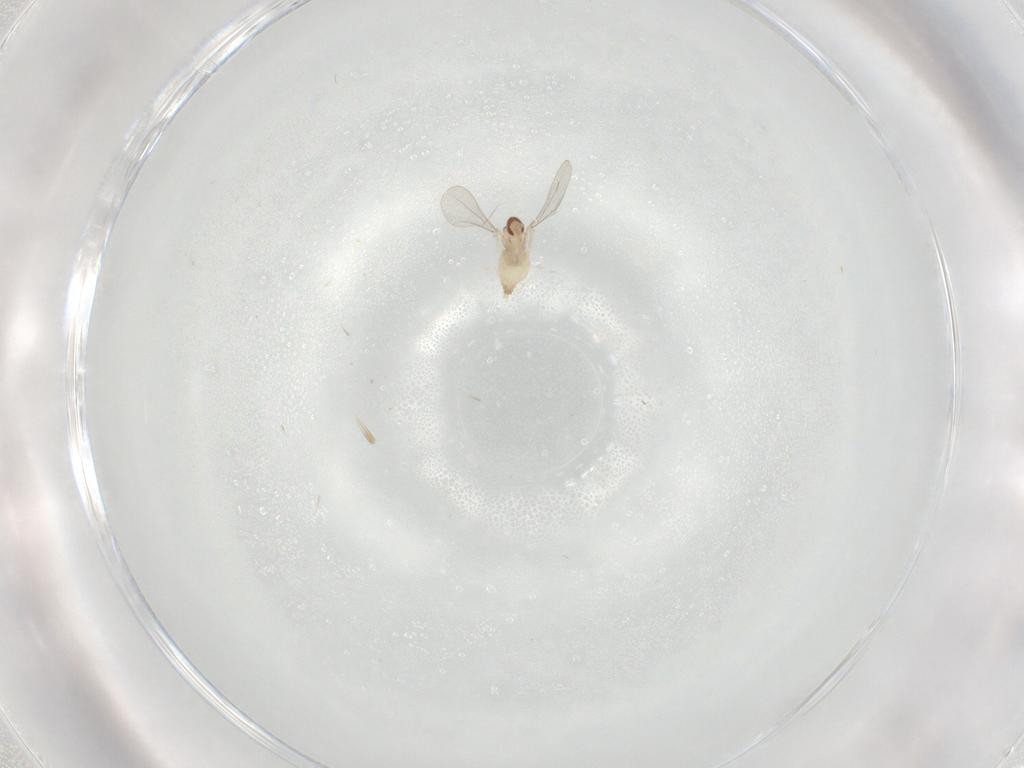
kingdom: Animalia
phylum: Arthropoda
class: Insecta
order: Diptera
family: Cecidomyiidae
